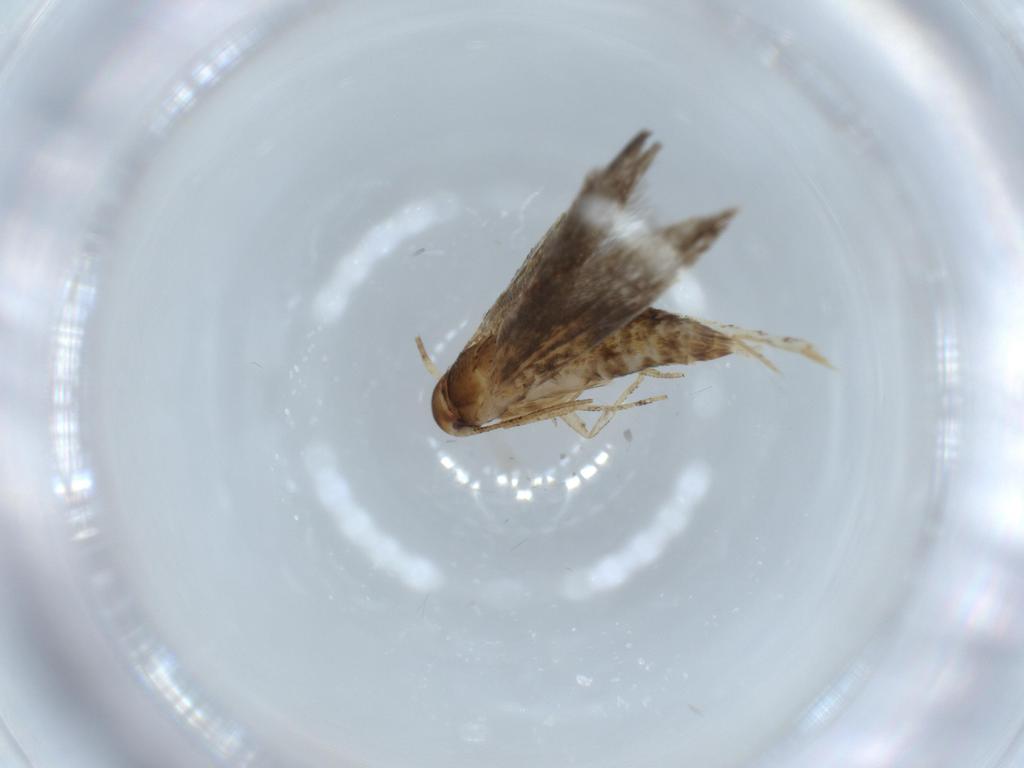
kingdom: Animalia
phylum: Arthropoda
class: Insecta
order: Lepidoptera
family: Momphidae
